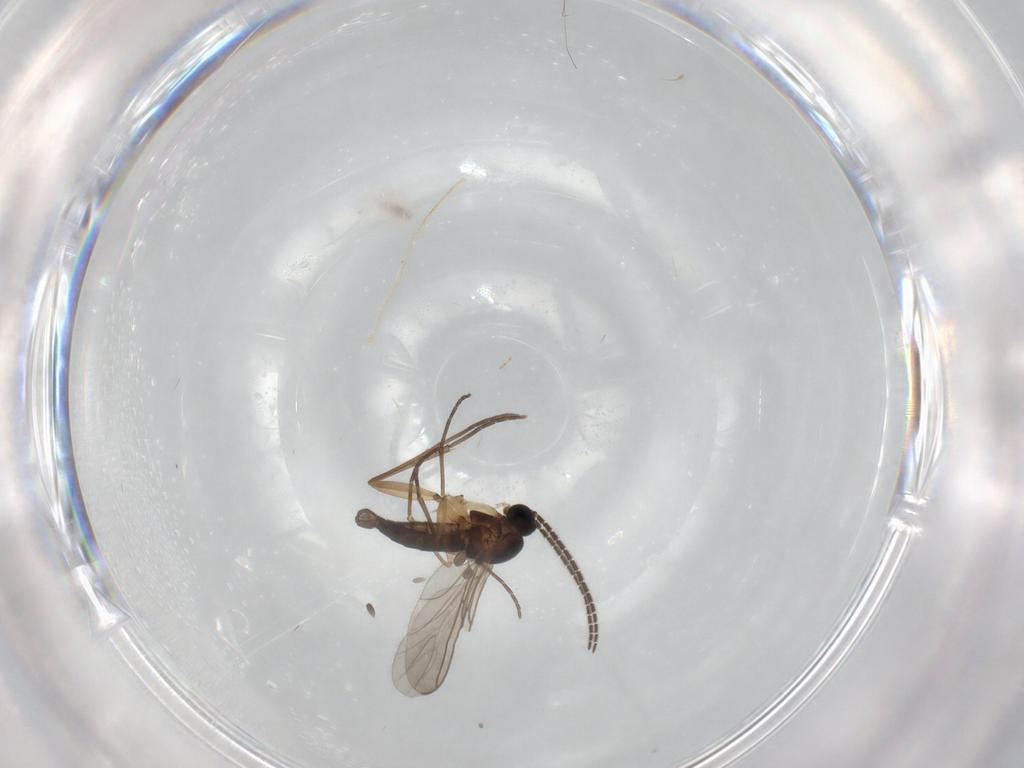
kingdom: Animalia
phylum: Arthropoda
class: Insecta
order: Diptera
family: Sciaridae
